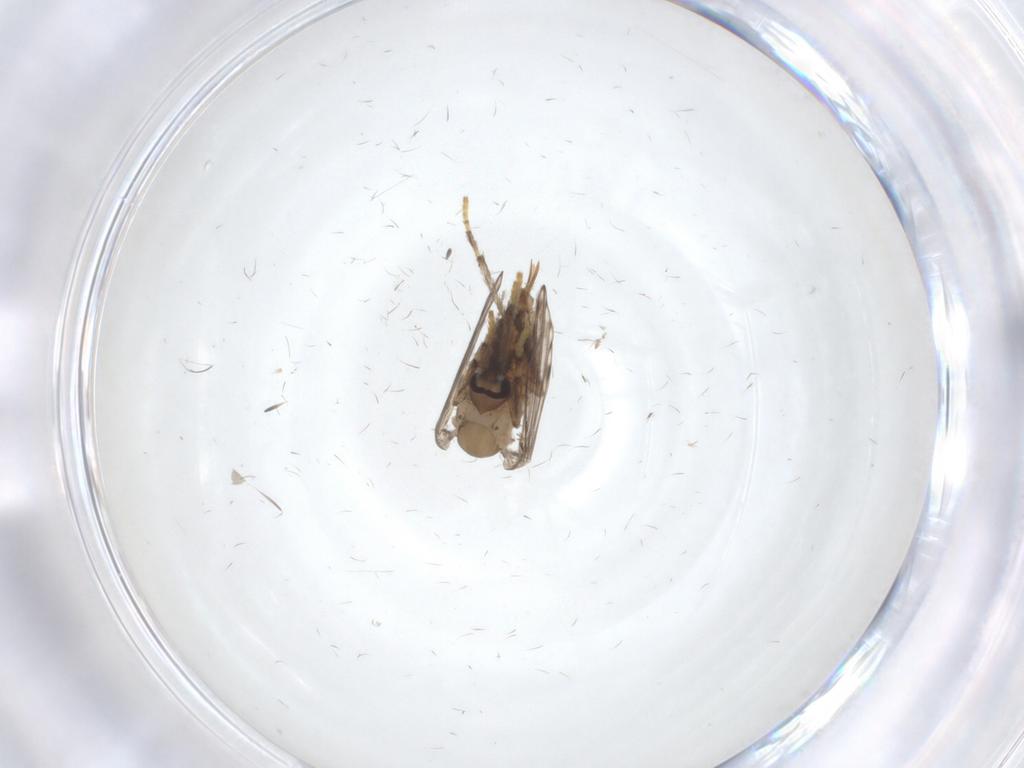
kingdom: Animalia
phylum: Arthropoda
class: Insecta
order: Diptera
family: Psychodidae
